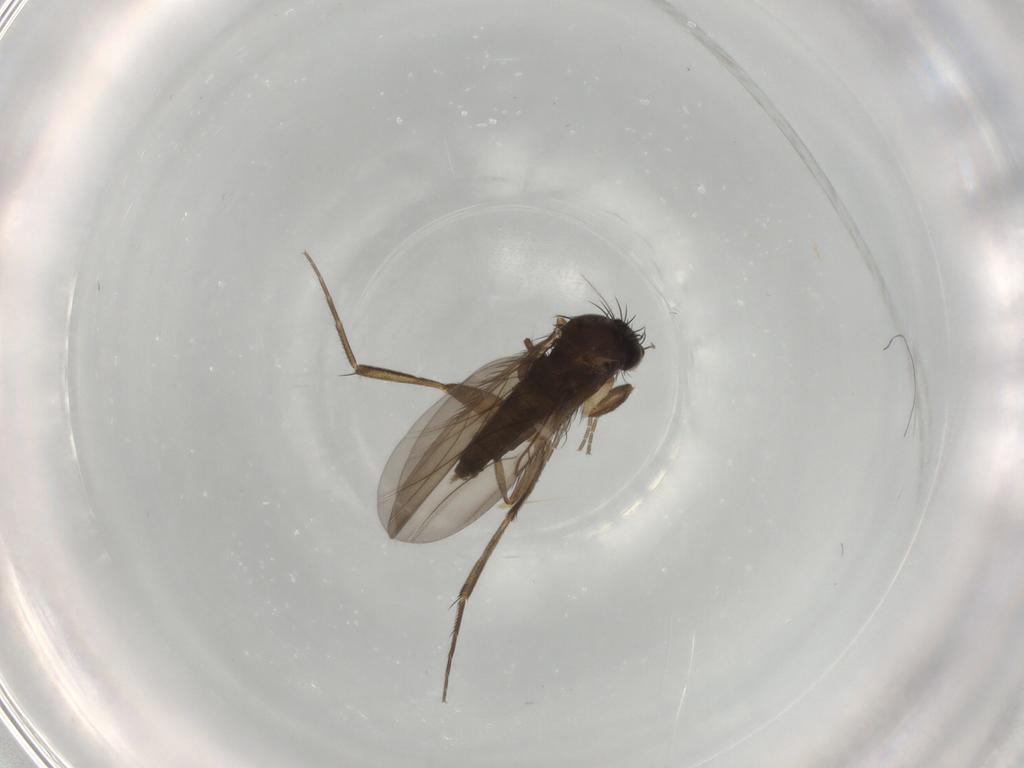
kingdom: Animalia
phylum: Arthropoda
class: Insecta
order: Diptera
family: Phoridae
